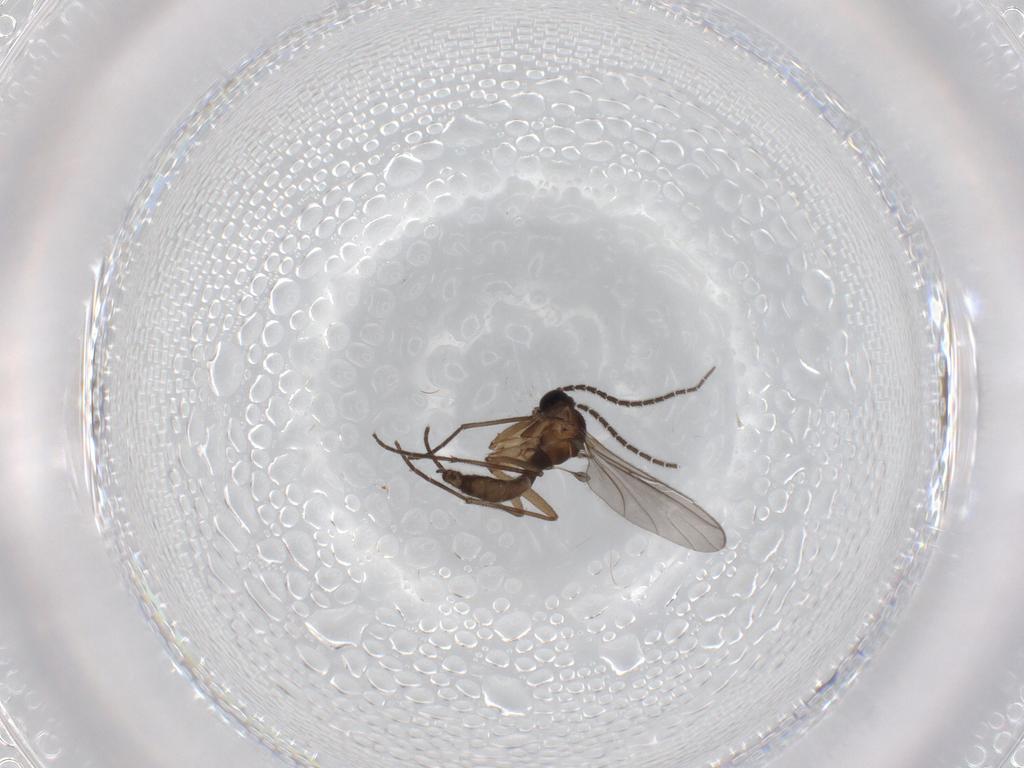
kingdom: Animalia
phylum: Arthropoda
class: Insecta
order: Diptera
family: Sciaridae
